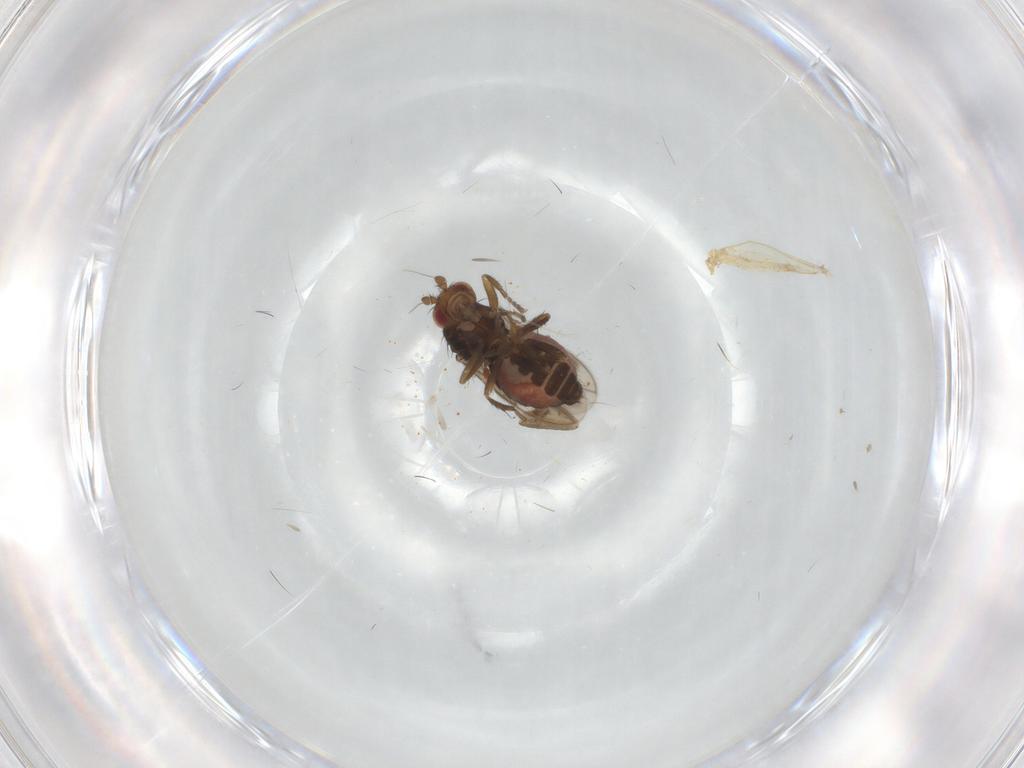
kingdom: Animalia
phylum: Arthropoda
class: Insecta
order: Diptera
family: Sphaeroceridae
